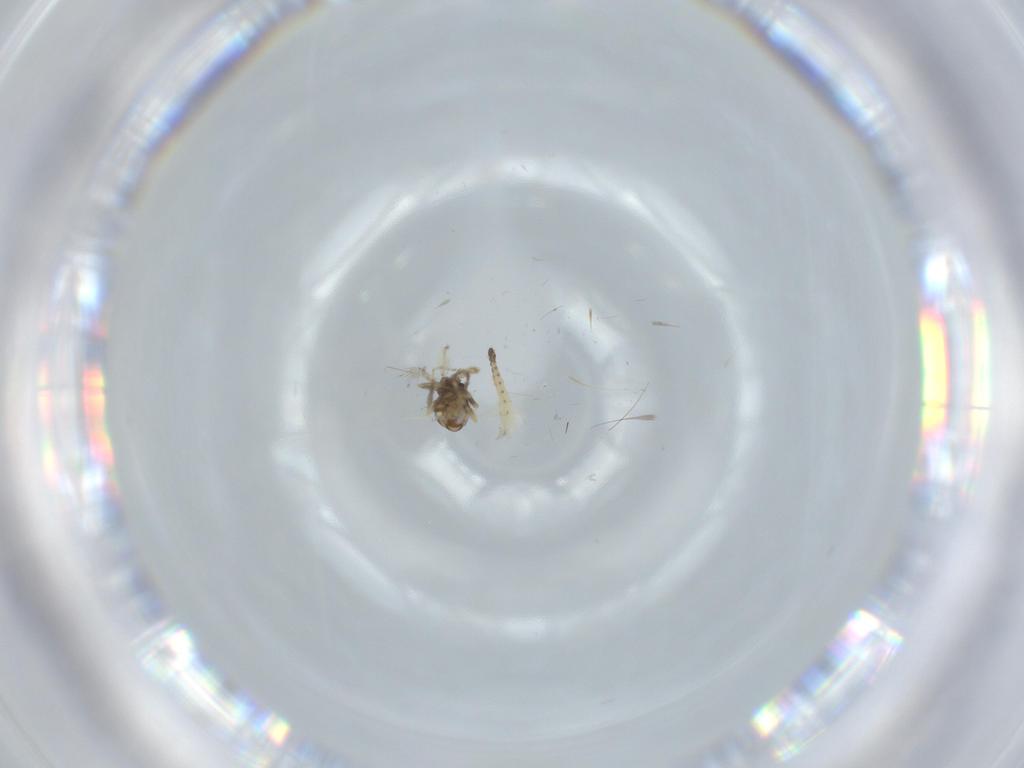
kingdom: Animalia
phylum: Arthropoda
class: Insecta
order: Diptera
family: Ceratopogonidae
